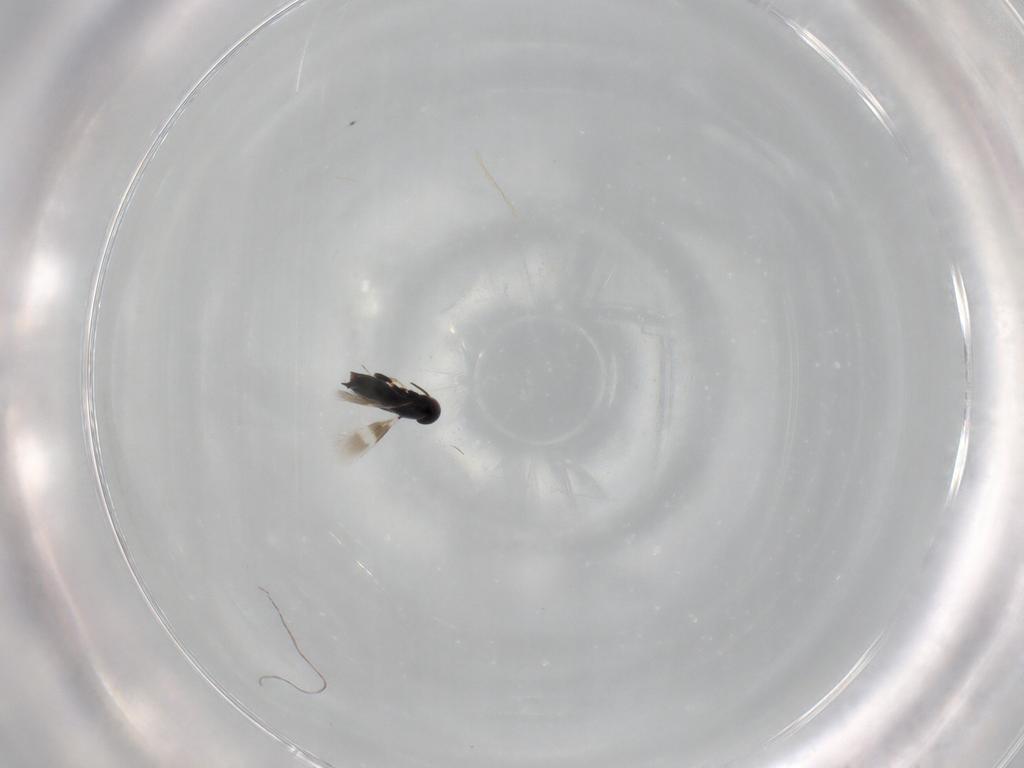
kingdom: Animalia
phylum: Arthropoda
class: Insecta
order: Hymenoptera
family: Signiphoridae
